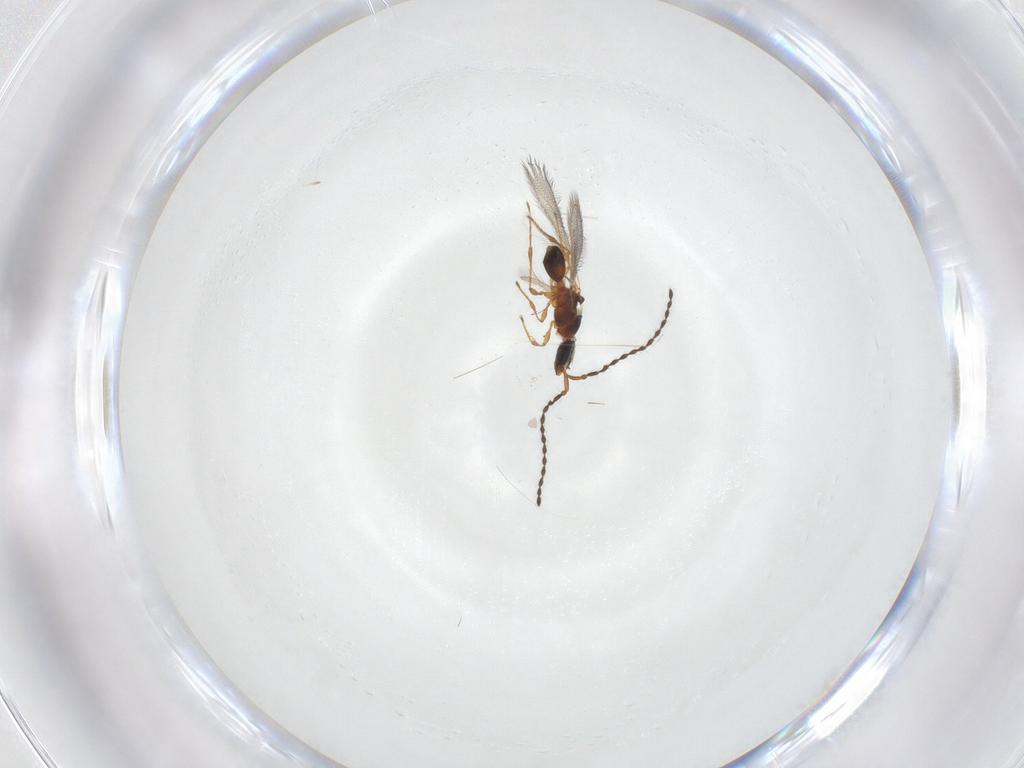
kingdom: Animalia
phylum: Arthropoda
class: Insecta
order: Hymenoptera
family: Diapriidae
